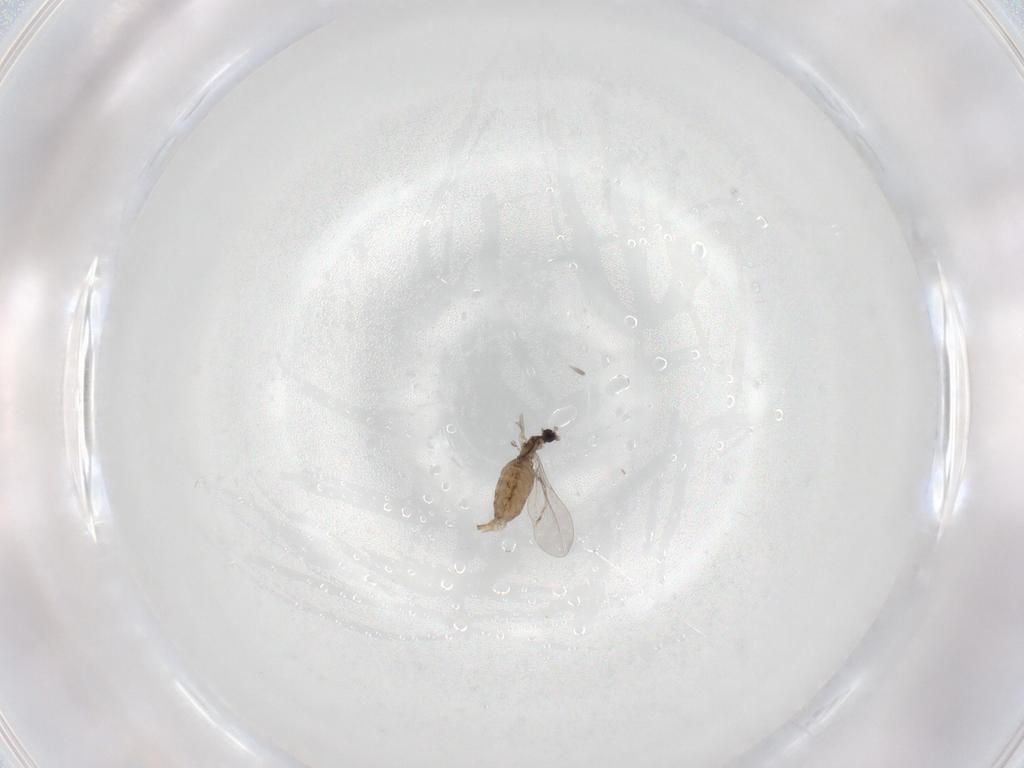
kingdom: Animalia
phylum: Arthropoda
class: Insecta
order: Diptera
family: Cecidomyiidae
